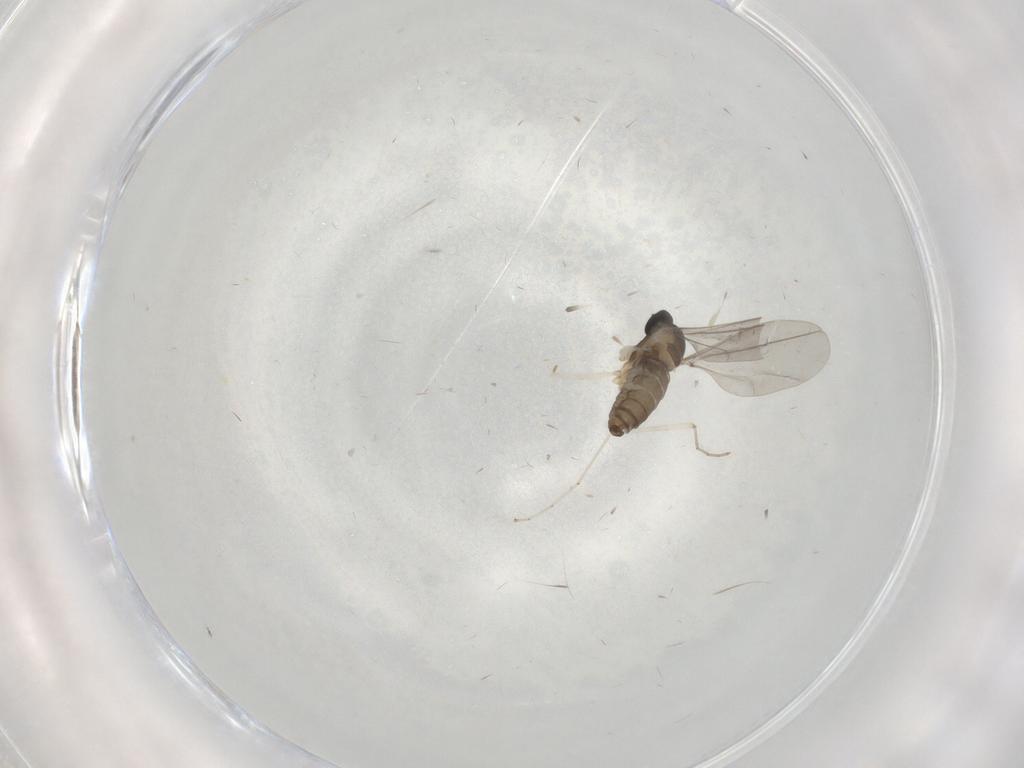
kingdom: Animalia
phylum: Arthropoda
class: Insecta
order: Diptera
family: Cecidomyiidae
